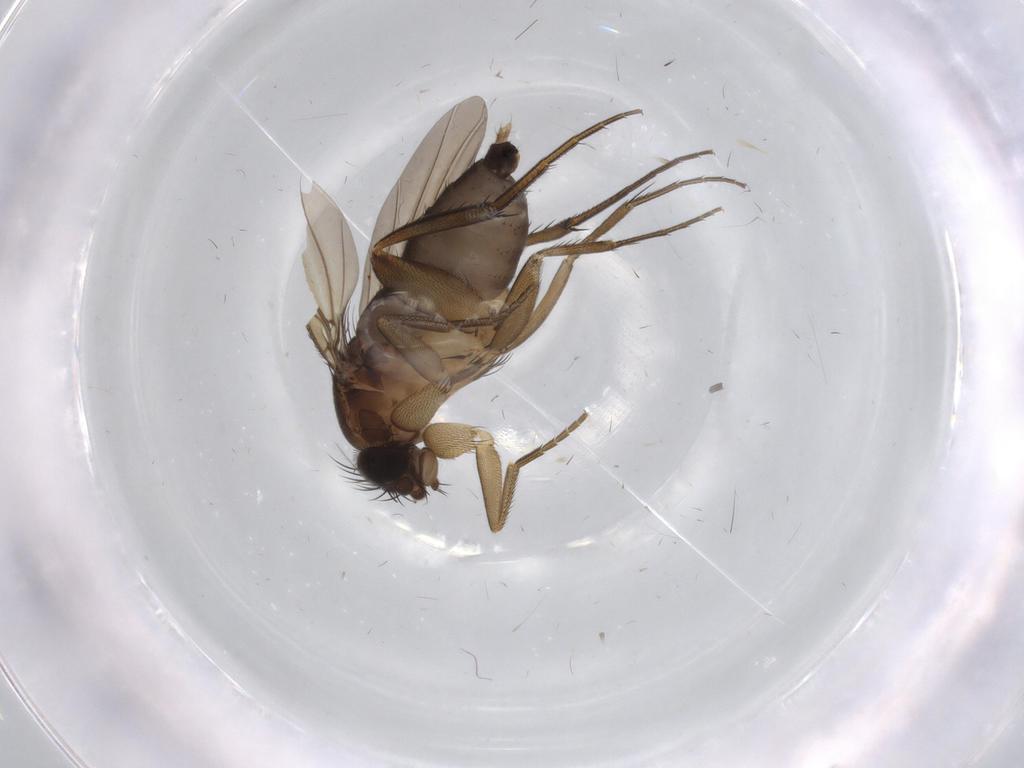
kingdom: Animalia
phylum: Arthropoda
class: Insecta
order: Diptera
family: Phoridae
